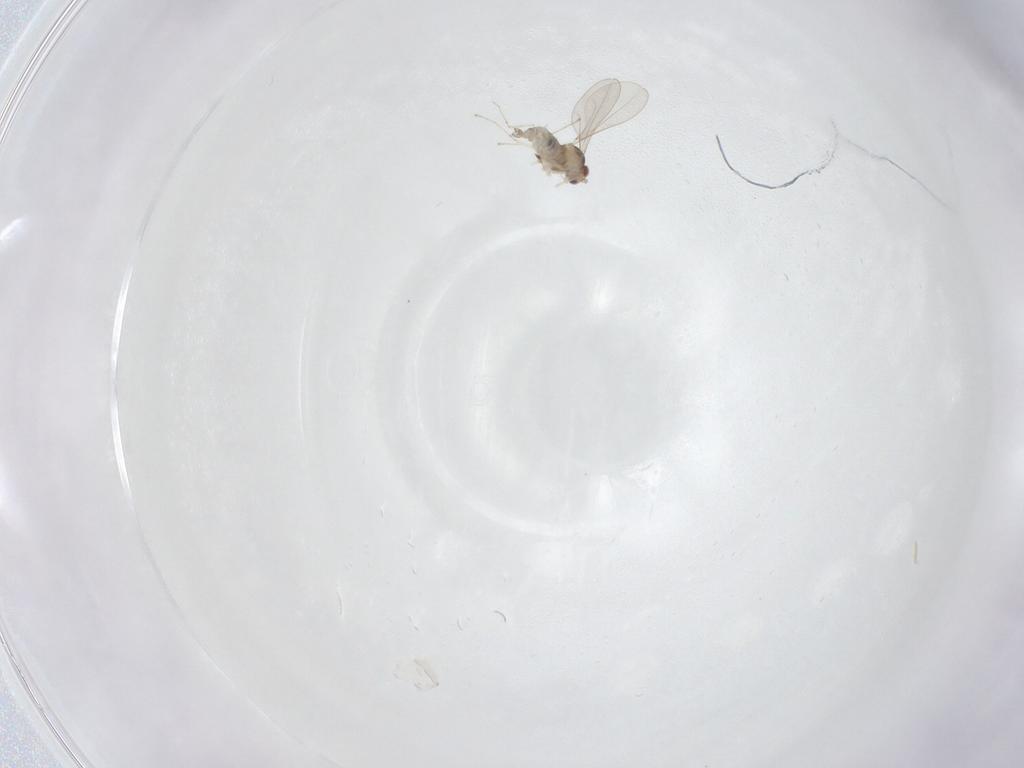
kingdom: Animalia
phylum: Arthropoda
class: Insecta
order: Diptera
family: Cecidomyiidae
